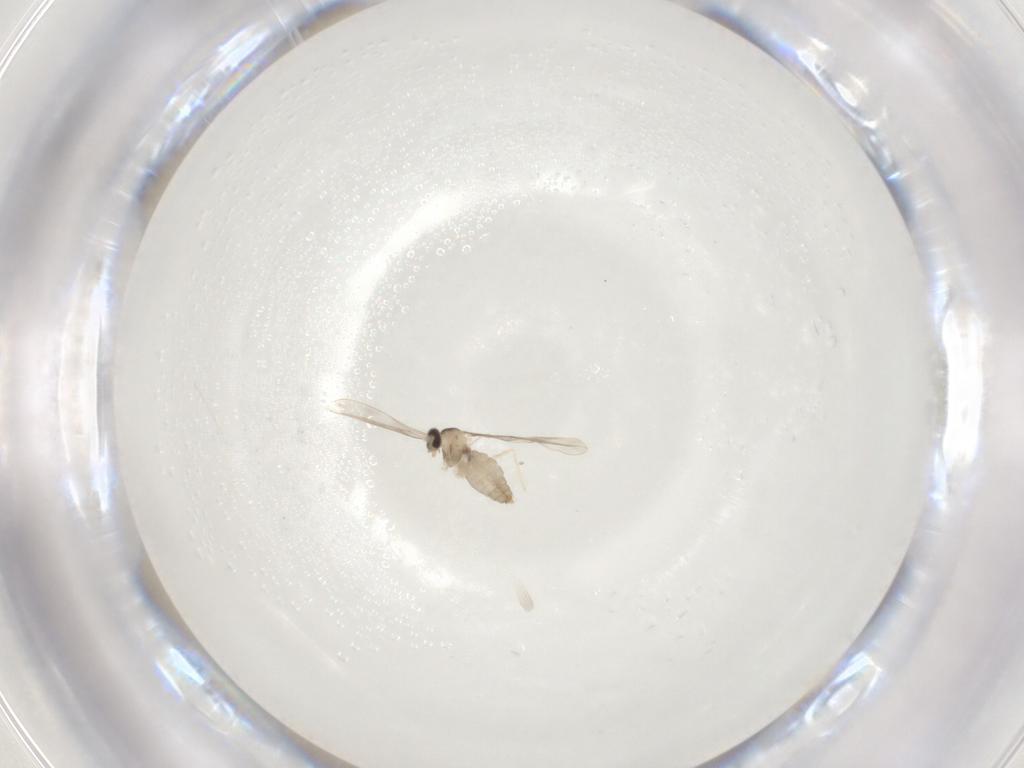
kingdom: Animalia
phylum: Arthropoda
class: Insecta
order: Diptera
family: Cecidomyiidae
